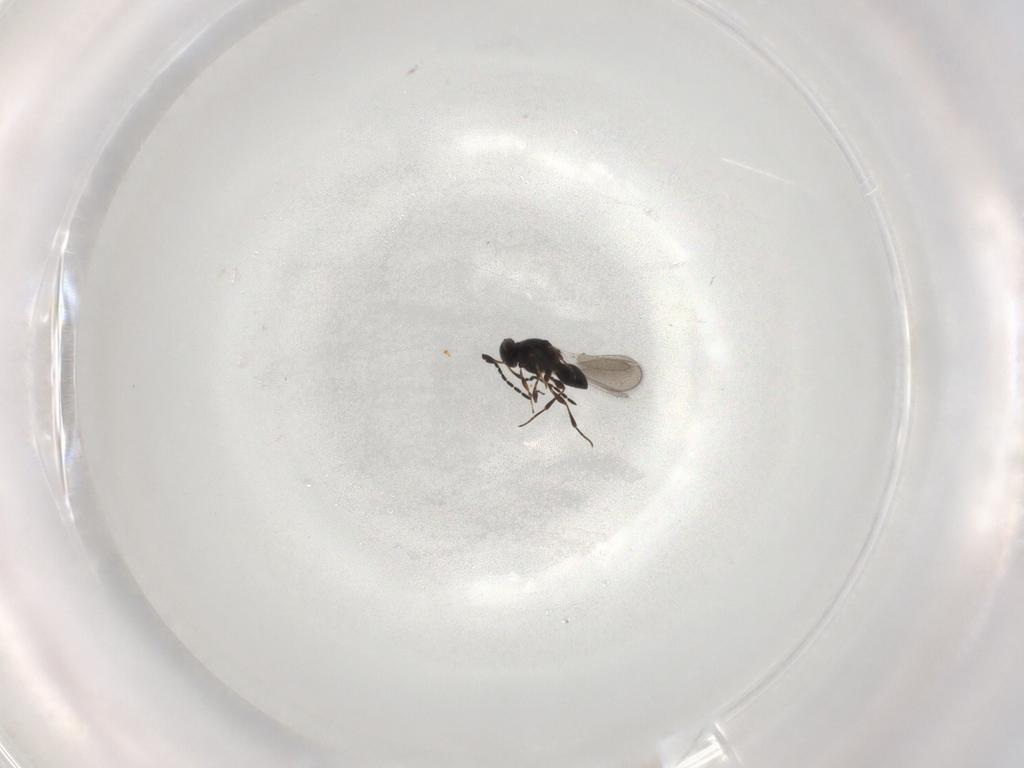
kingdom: Animalia
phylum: Arthropoda
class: Insecta
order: Hymenoptera
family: Platygastridae
